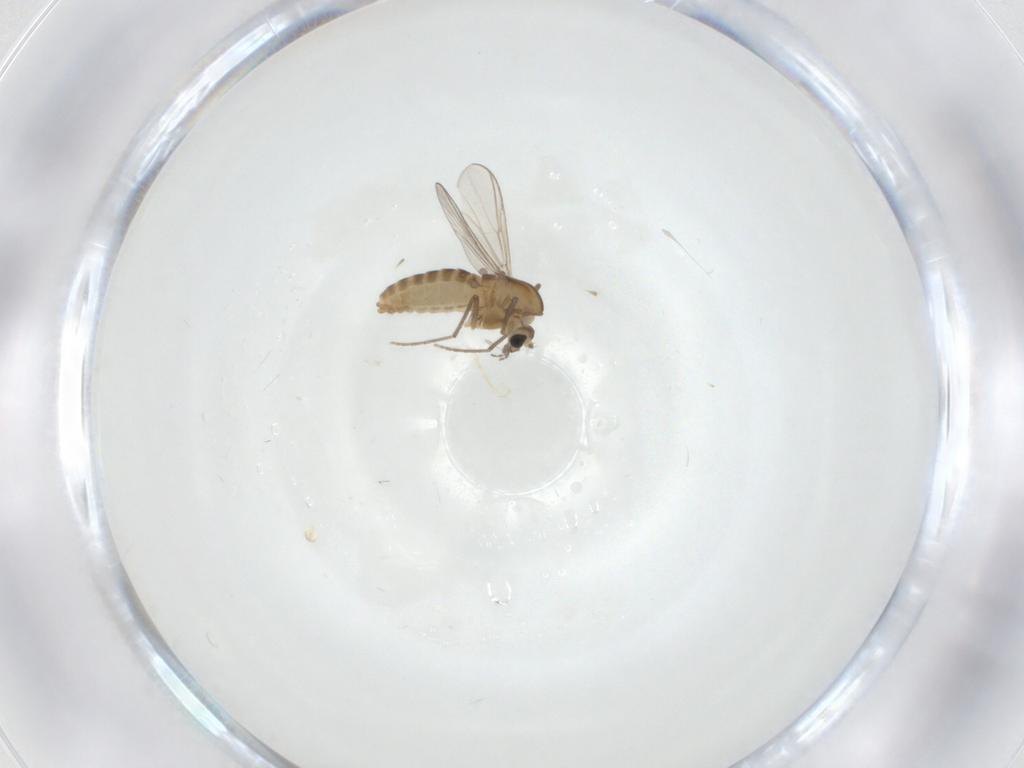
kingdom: Animalia
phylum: Arthropoda
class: Insecta
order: Diptera
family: Chironomidae
